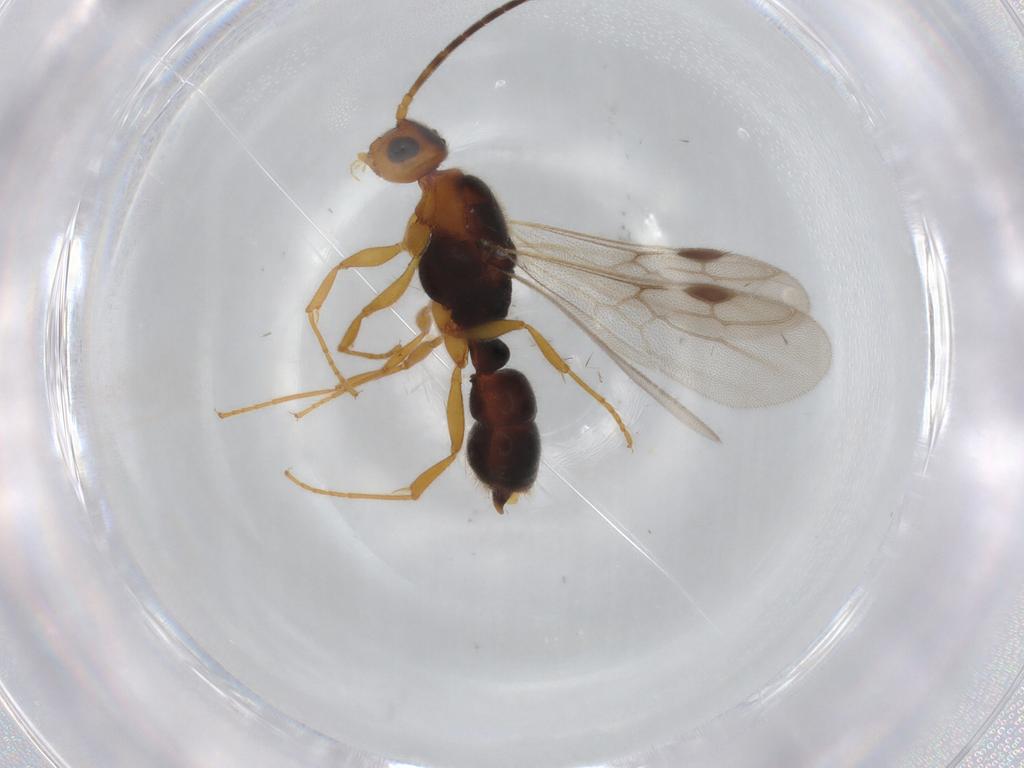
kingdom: Animalia
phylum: Arthropoda
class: Insecta
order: Hymenoptera
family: Formicidae
